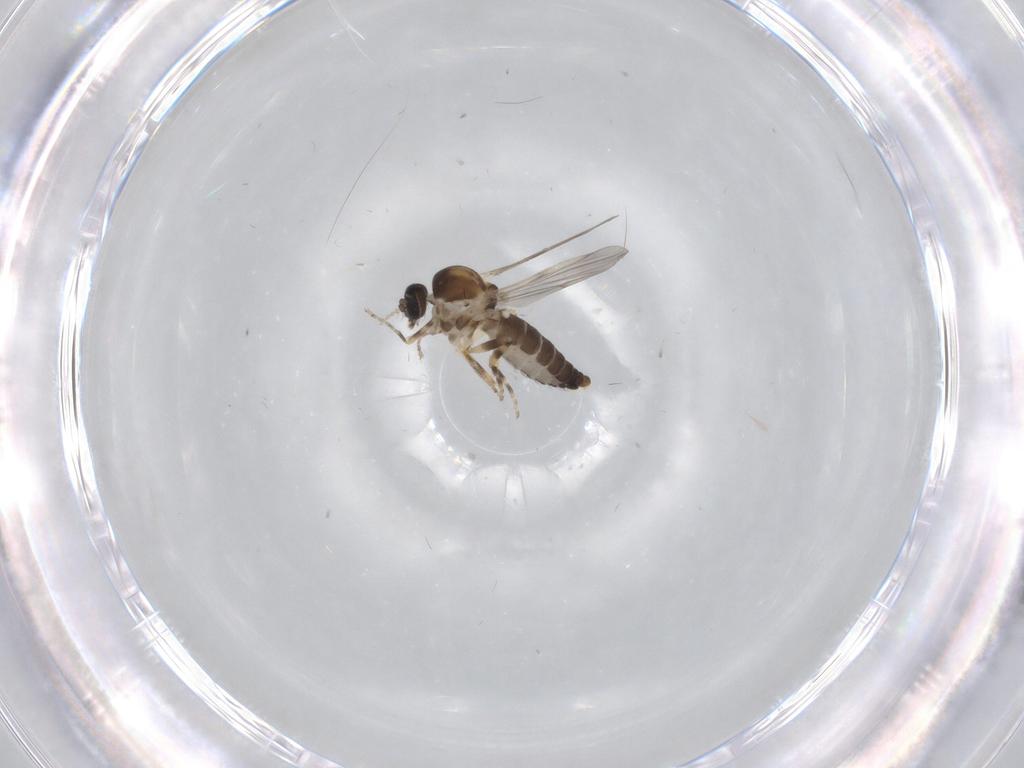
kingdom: Animalia
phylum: Arthropoda
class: Insecta
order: Diptera
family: Ceratopogonidae
